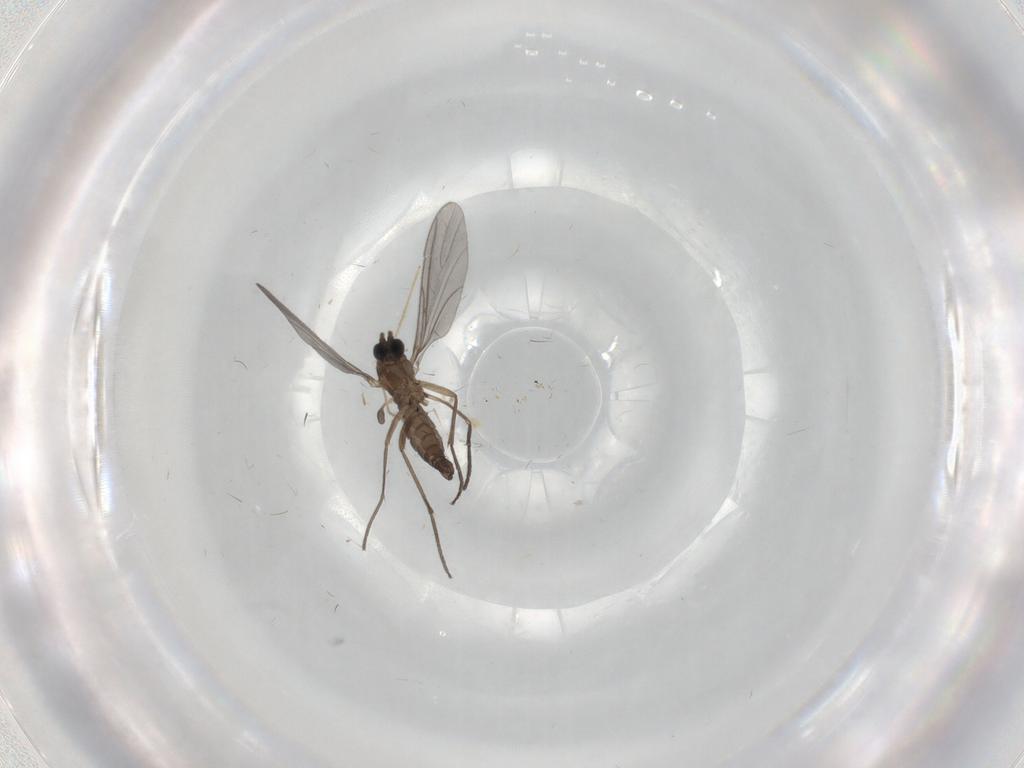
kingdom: Animalia
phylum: Arthropoda
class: Insecta
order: Diptera
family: Sciaridae
